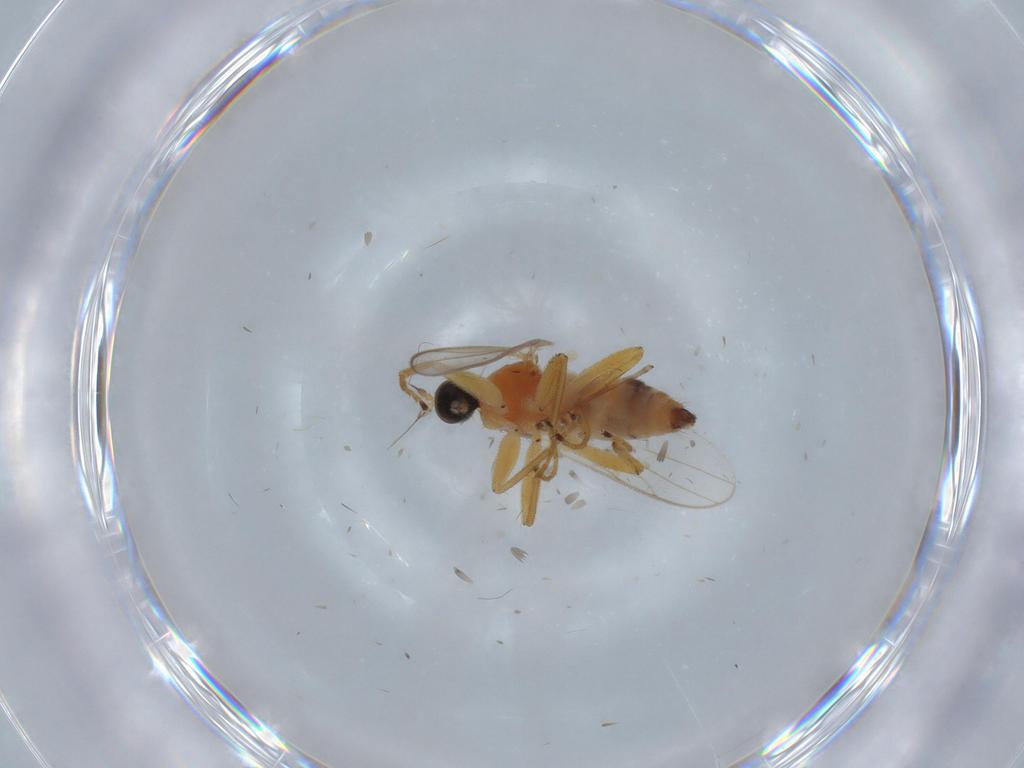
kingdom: Animalia
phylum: Arthropoda
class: Insecta
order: Diptera
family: Limoniidae
